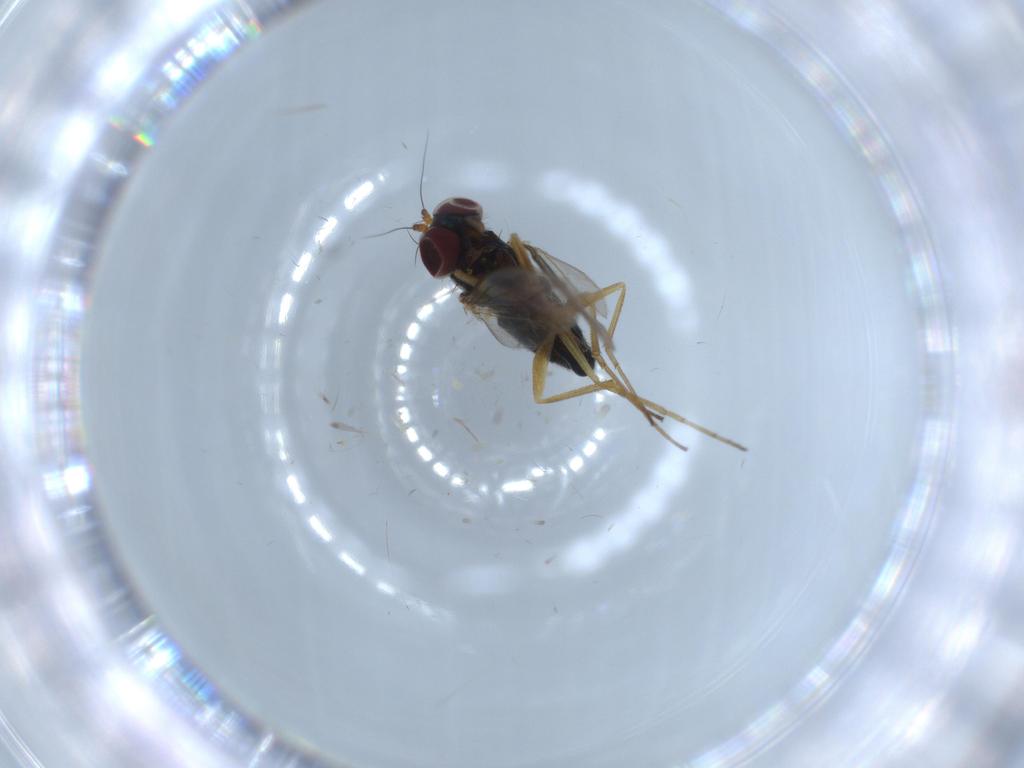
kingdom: Animalia
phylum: Arthropoda
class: Insecta
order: Diptera
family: Dolichopodidae
